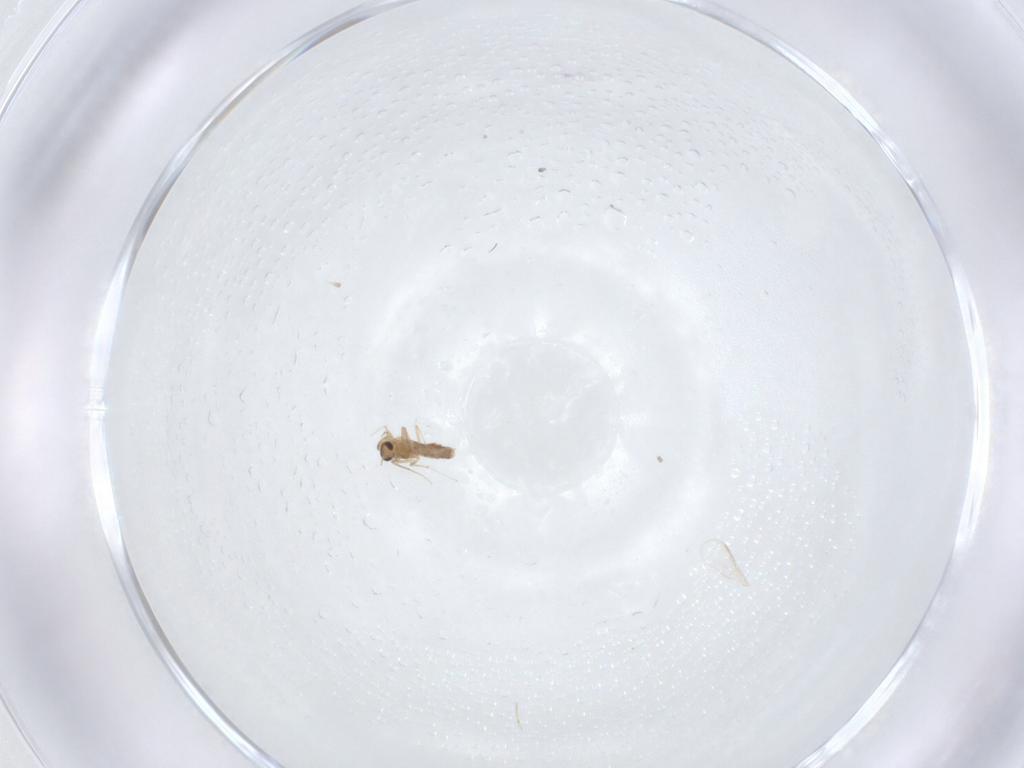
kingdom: Animalia
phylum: Arthropoda
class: Insecta
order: Diptera
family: Chironomidae
